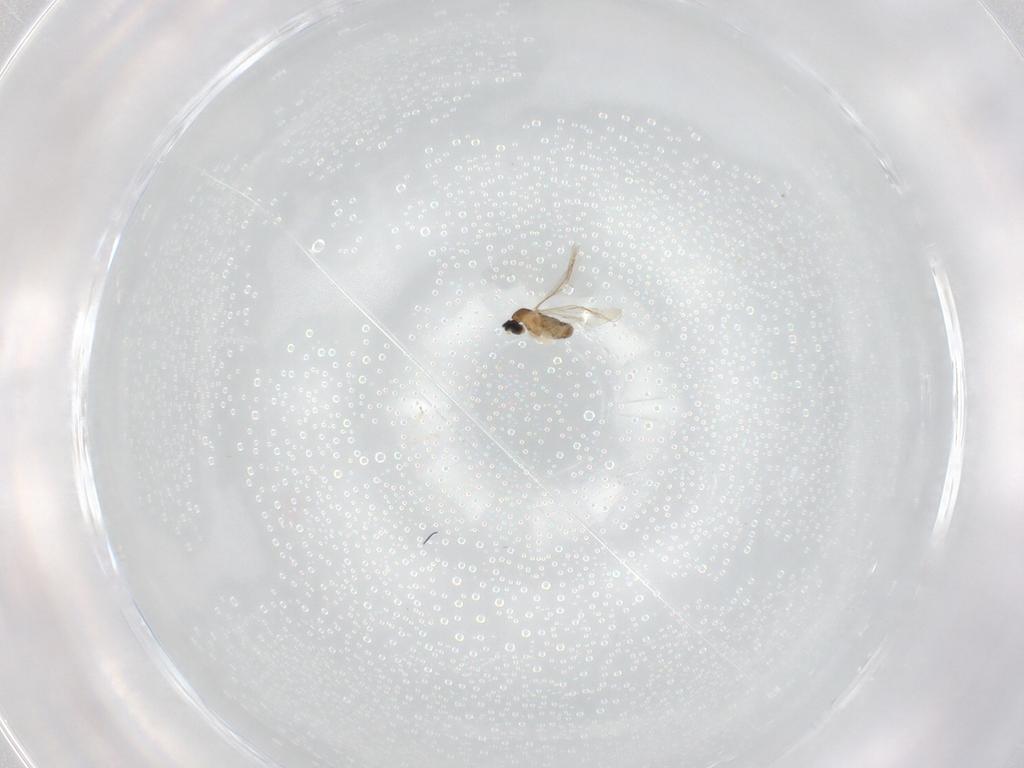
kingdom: Animalia
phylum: Arthropoda
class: Insecta
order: Diptera
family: Cecidomyiidae
